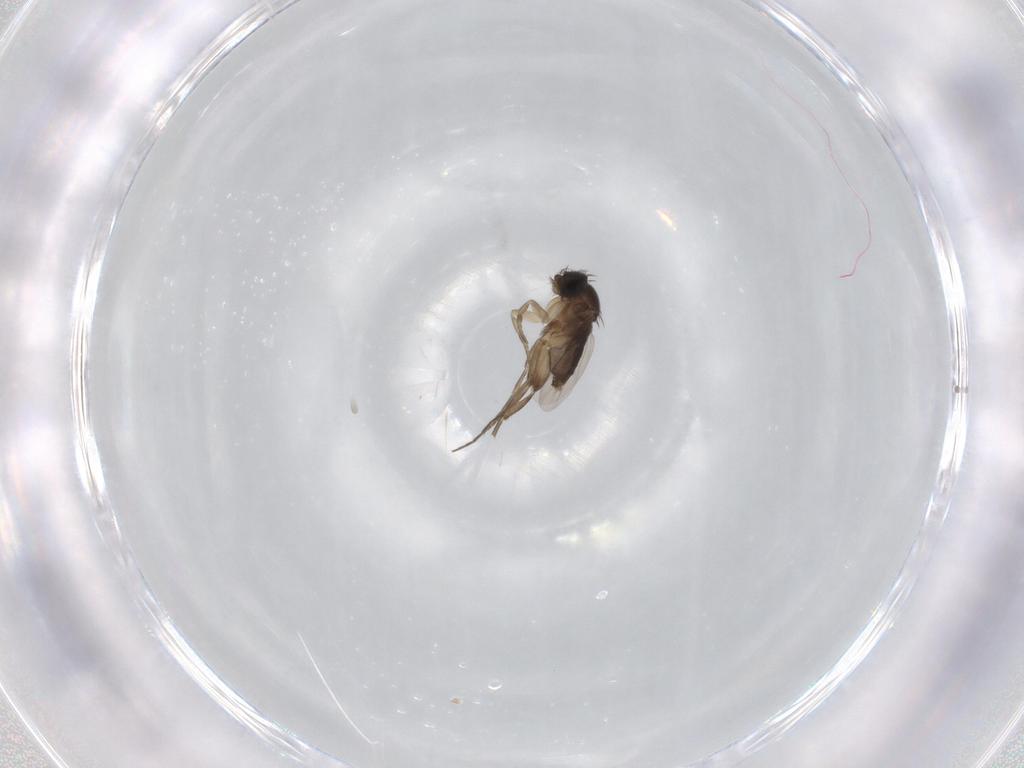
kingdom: Animalia
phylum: Arthropoda
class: Insecta
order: Diptera
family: Phoridae
